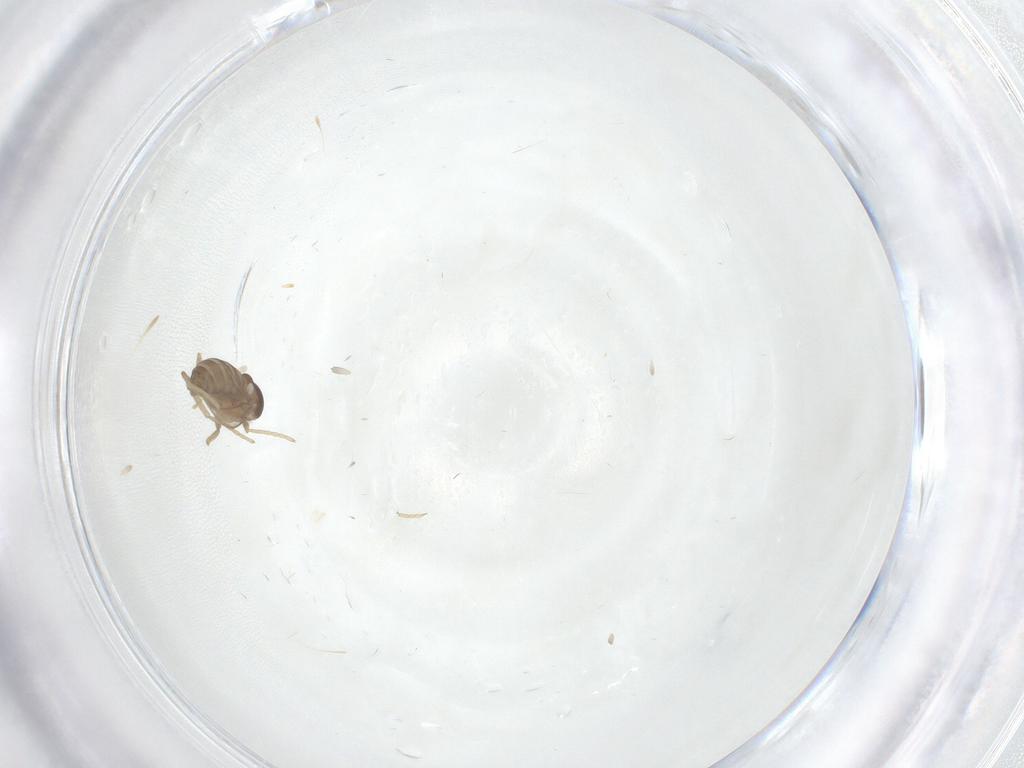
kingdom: Animalia
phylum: Arthropoda
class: Insecta
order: Diptera
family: Cecidomyiidae
